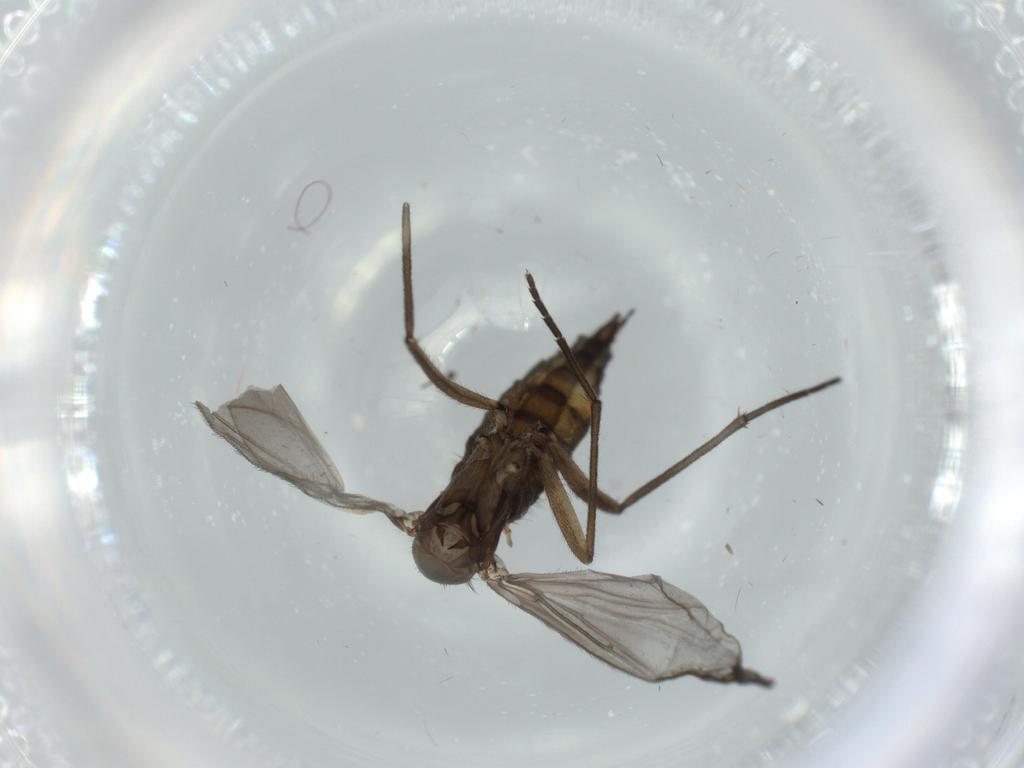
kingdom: Animalia
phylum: Arthropoda
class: Insecta
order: Diptera
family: Sciaridae
